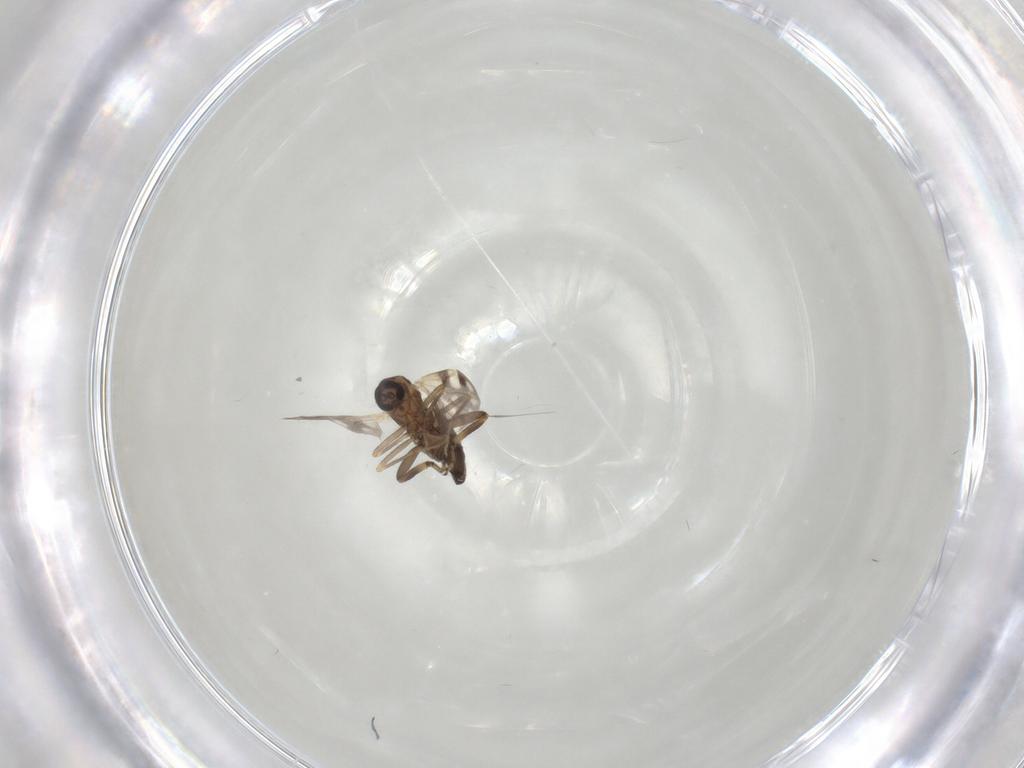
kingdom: Animalia
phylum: Arthropoda
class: Insecta
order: Diptera
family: Ceratopogonidae
